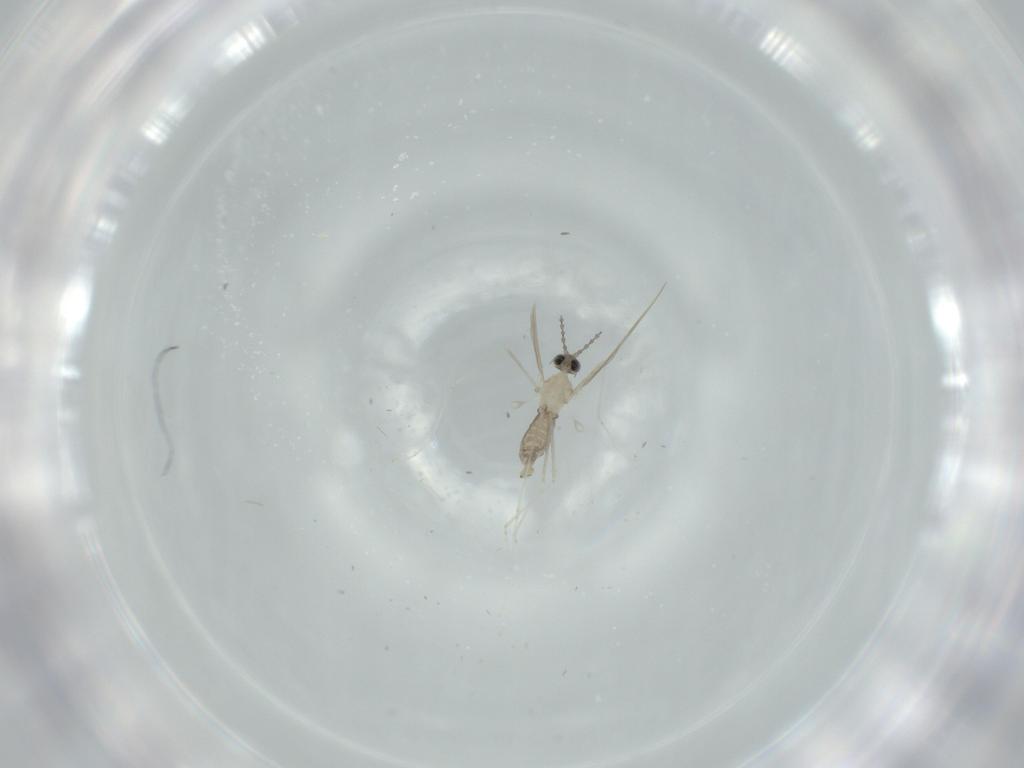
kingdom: Animalia
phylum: Arthropoda
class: Insecta
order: Diptera
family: Cecidomyiidae
